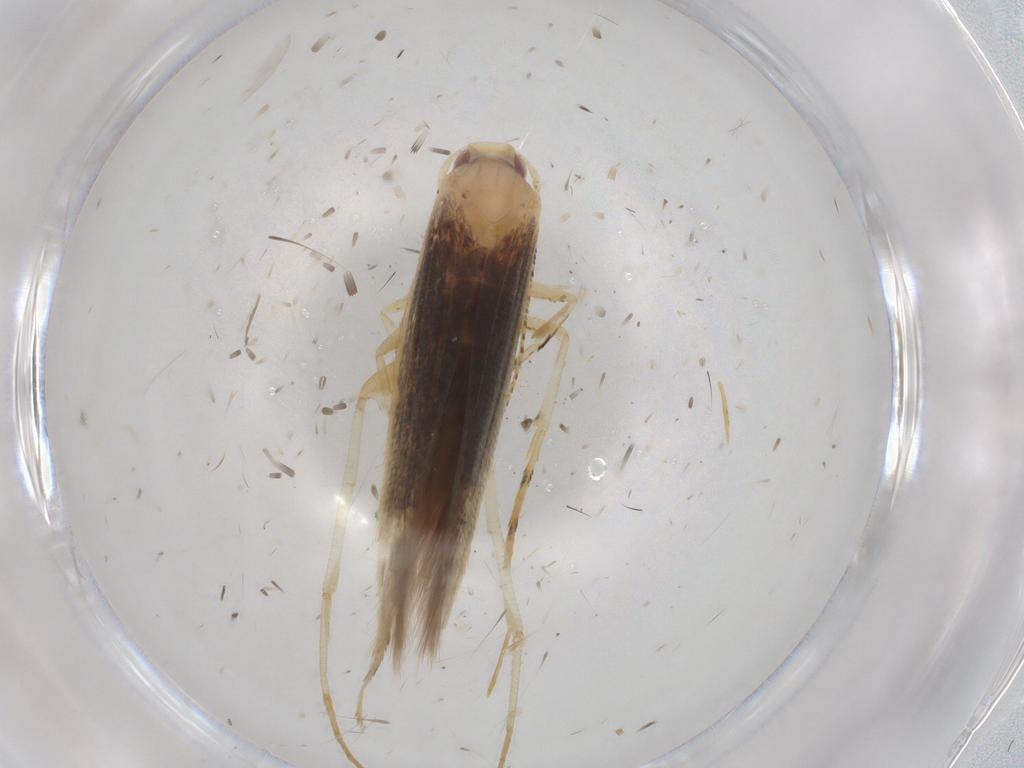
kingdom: Animalia
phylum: Arthropoda
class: Insecta
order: Lepidoptera
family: Cosmopterigidae
